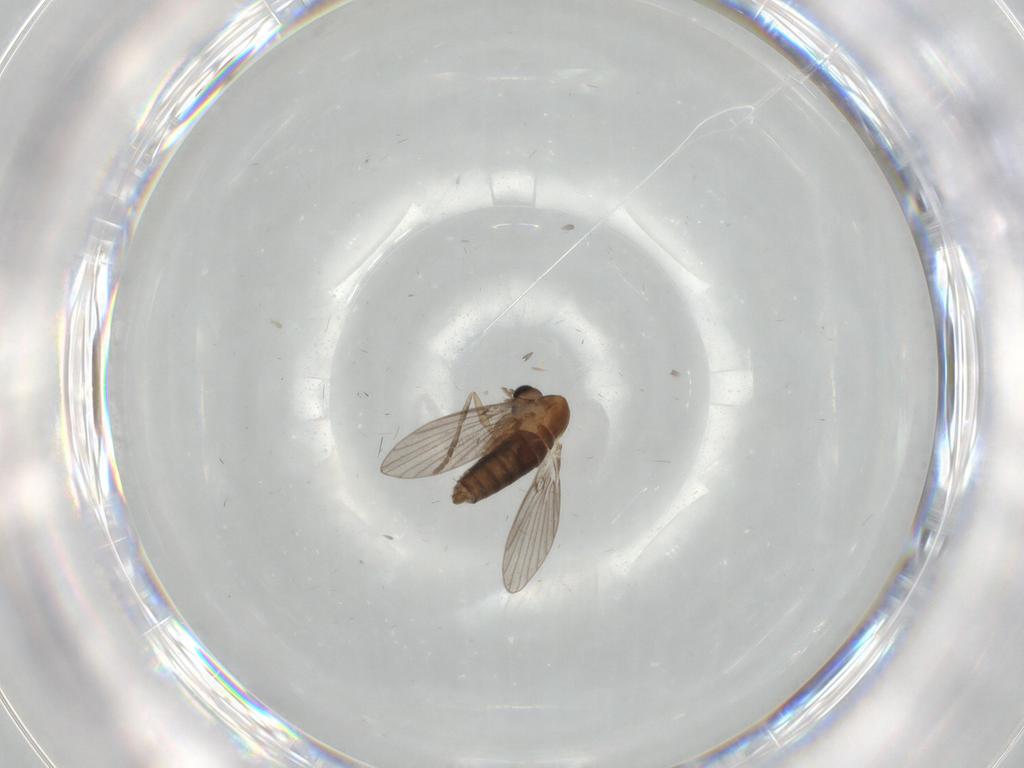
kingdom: Animalia
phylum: Arthropoda
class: Insecta
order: Diptera
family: Psychodidae
